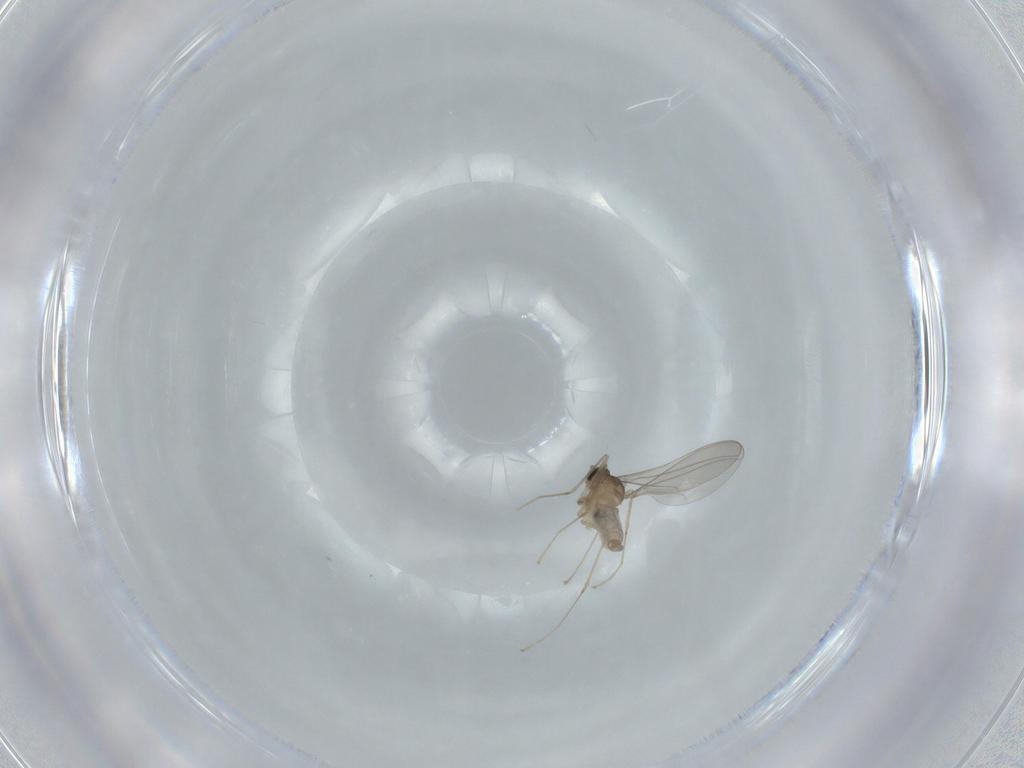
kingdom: Animalia
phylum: Arthropoda
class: Insecta
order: Diptera
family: Cecidomyiidae
